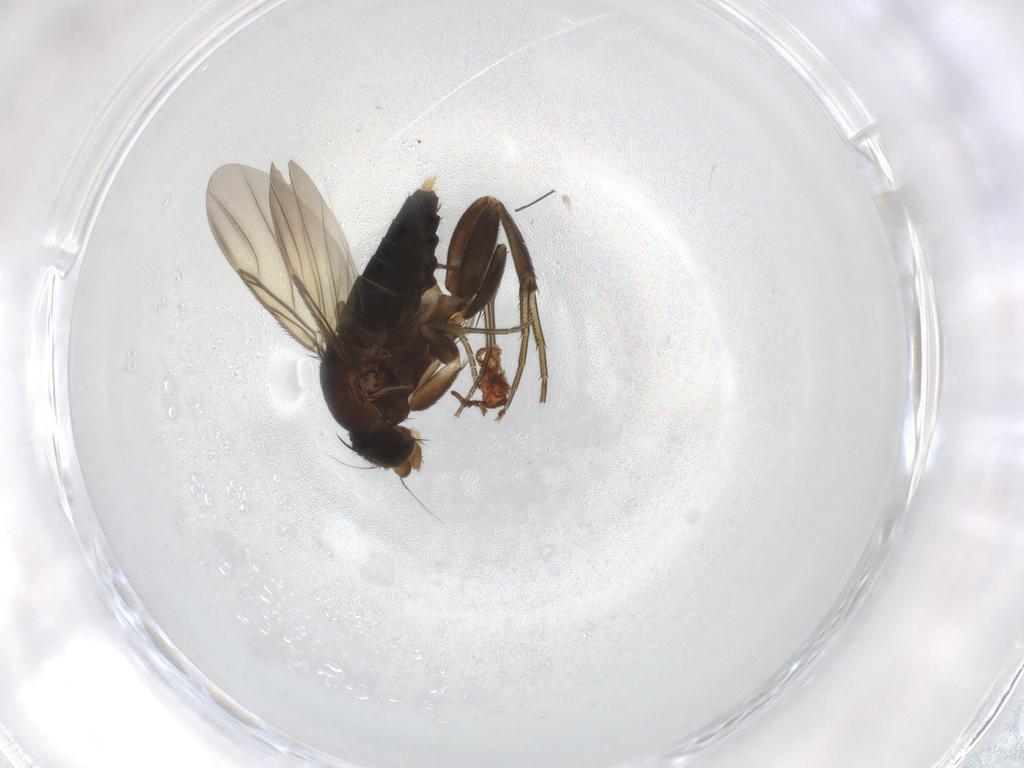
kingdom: Animalia
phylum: Arthropoda
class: Insecta
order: Diptera
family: Phoridae
